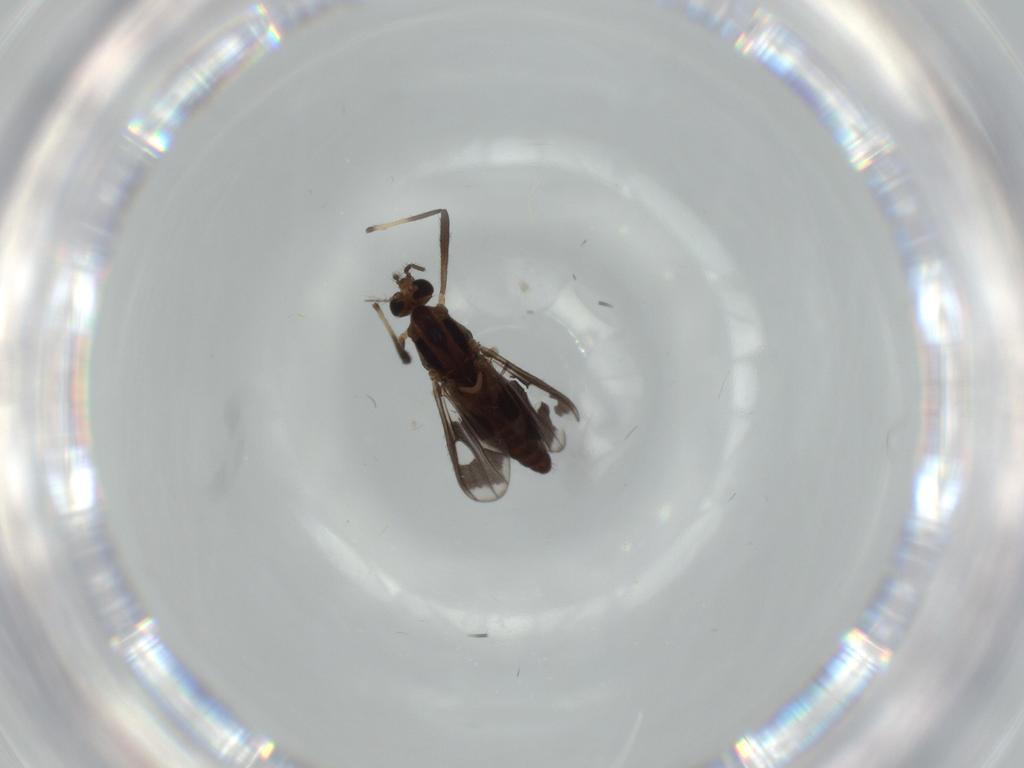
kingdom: Animalia
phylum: Arthropoda
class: Insecta
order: Diptera
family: Chironomidae
